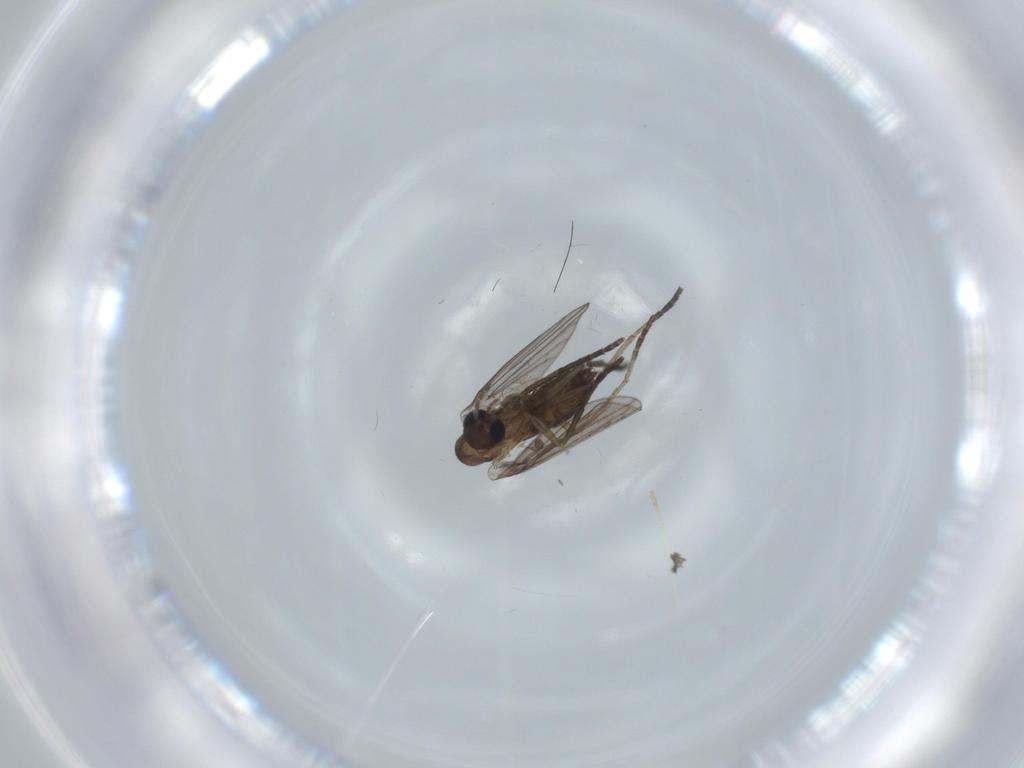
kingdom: Animalia
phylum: Arthropoda
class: Insecta
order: Diptera
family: Psychodidae
